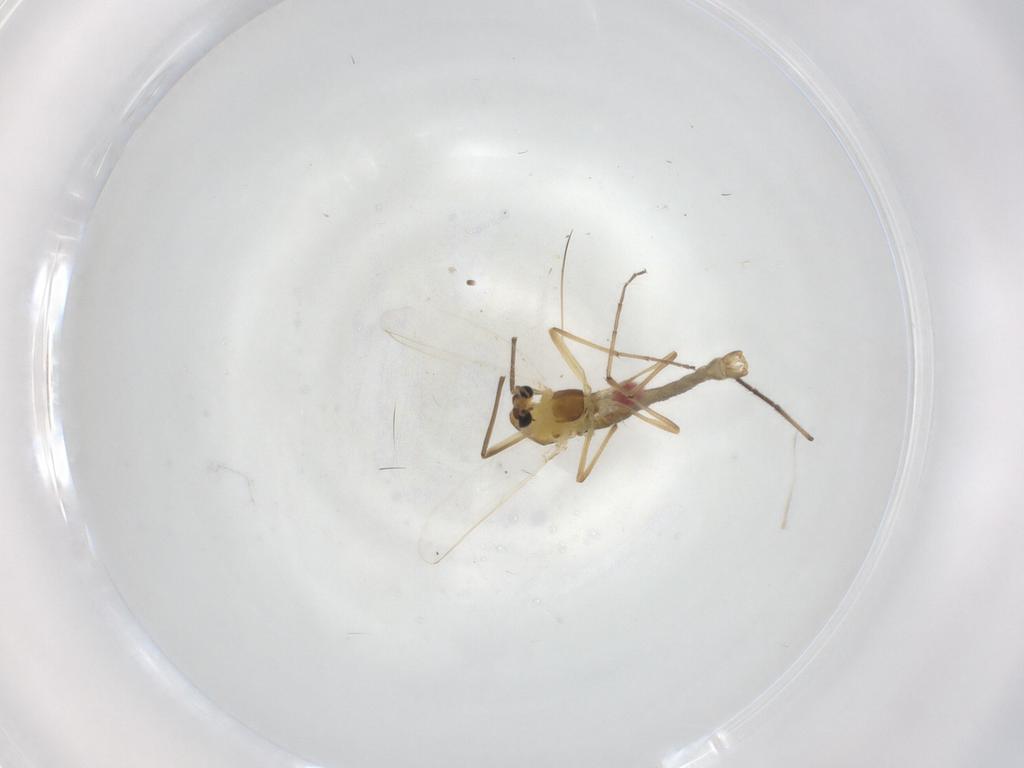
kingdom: Animalia
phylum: Arthropoda
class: Insecta
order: Diptera
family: Chironomidae
